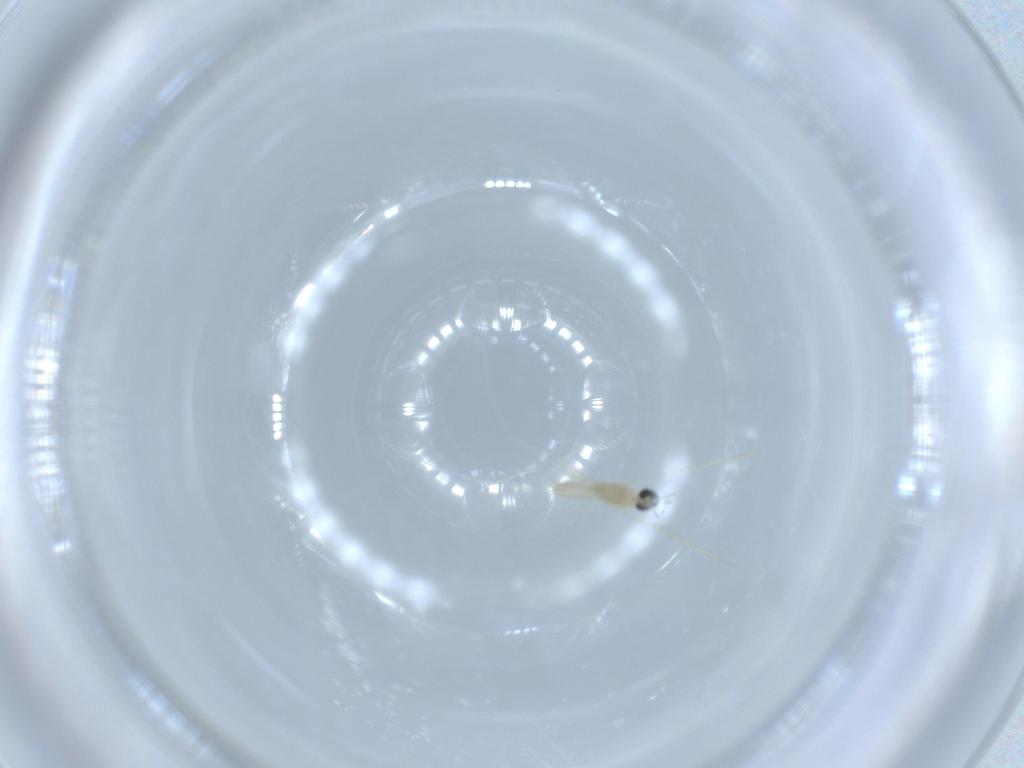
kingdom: Animalia
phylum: Arthropoda
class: Insecta
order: Diptera
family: Cecidomyiidae
